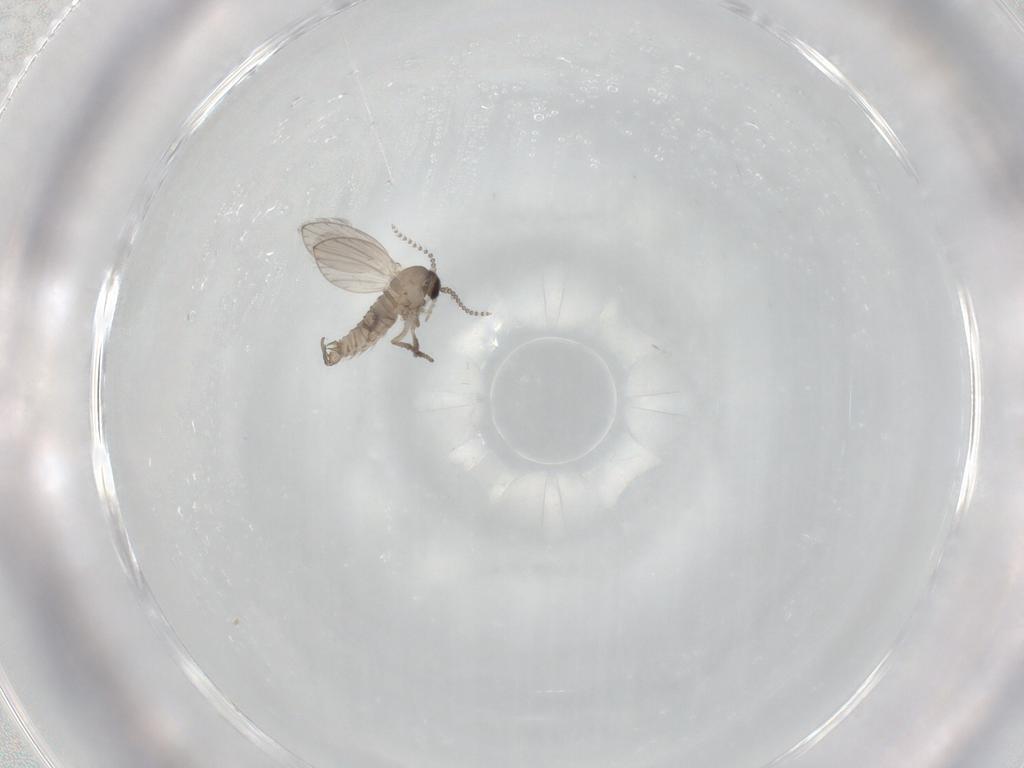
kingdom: Animalia
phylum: Arthropoda
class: Insecta
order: Diptera
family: Psychodidae
